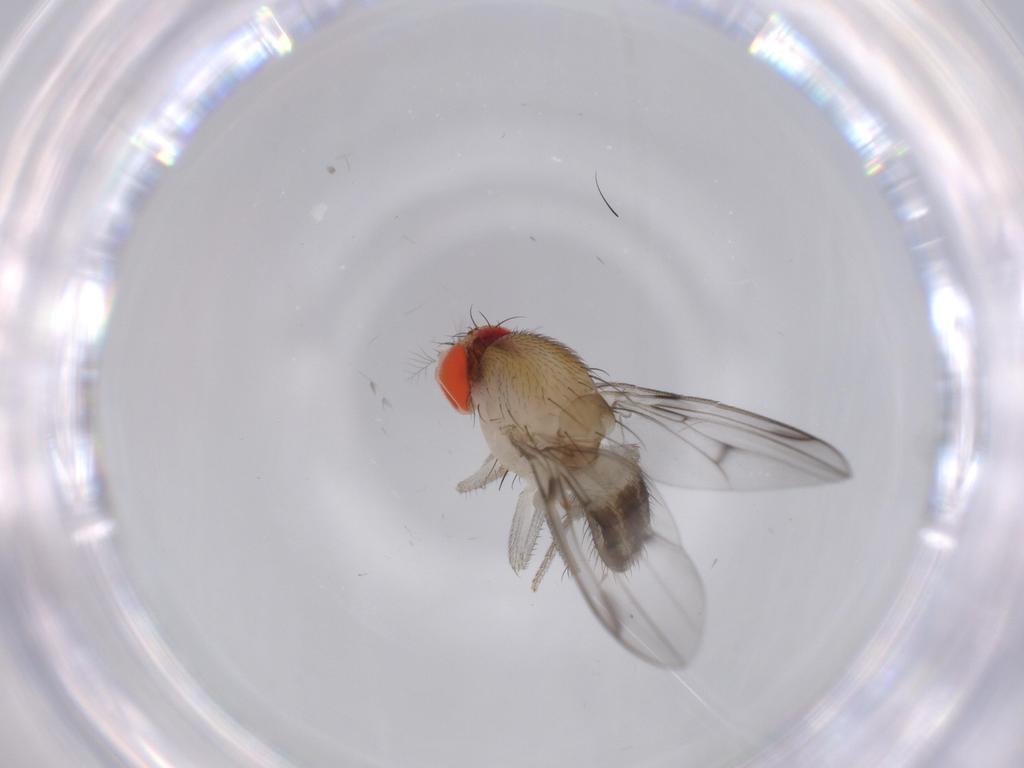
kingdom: Animalia
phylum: Arthropoda
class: Insecta
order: Diptera
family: Drosophilidae
